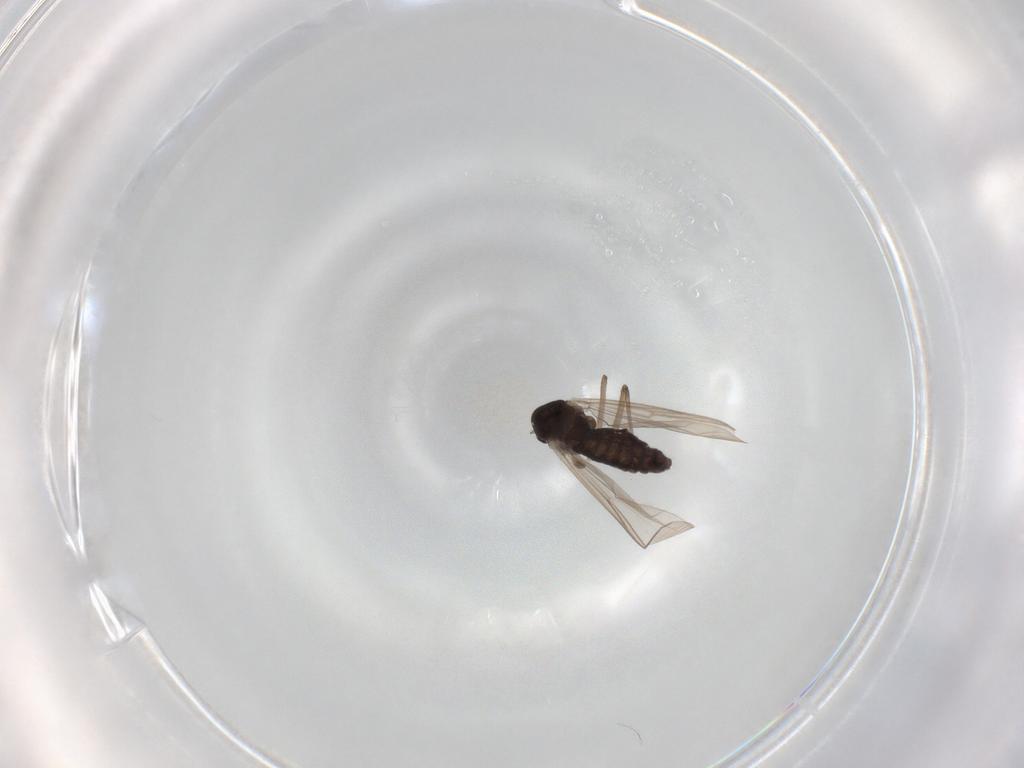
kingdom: Animalia
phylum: Arthropoda
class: Insecta
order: Diptera
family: Chironomidae
